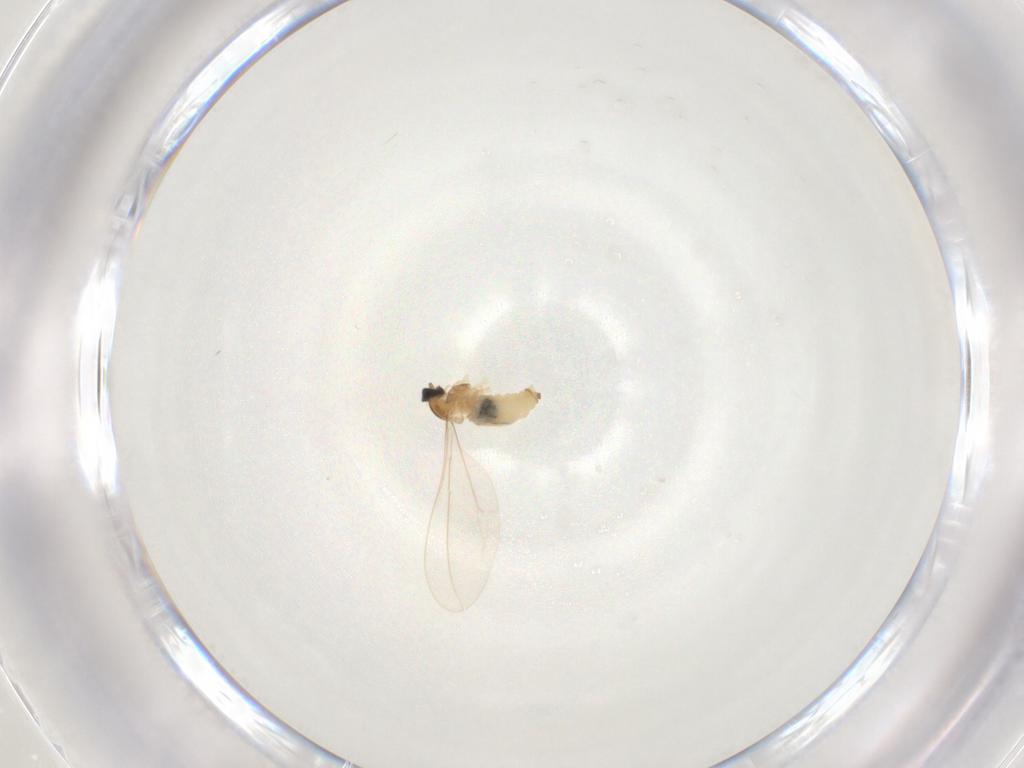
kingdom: Animalia
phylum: Arthropoda
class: Insecta
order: Diptera
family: Cecidomyiidae
